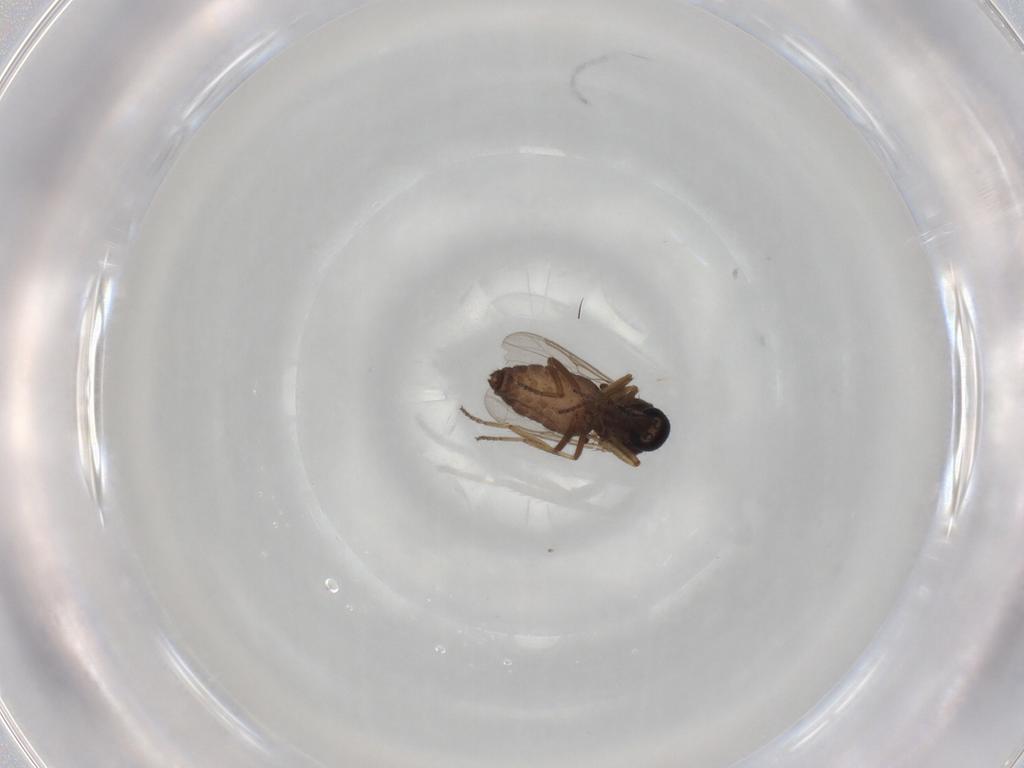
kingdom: Animalia
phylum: Arthropoda
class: Insecta
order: Diptera
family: Ceratopogonidae
